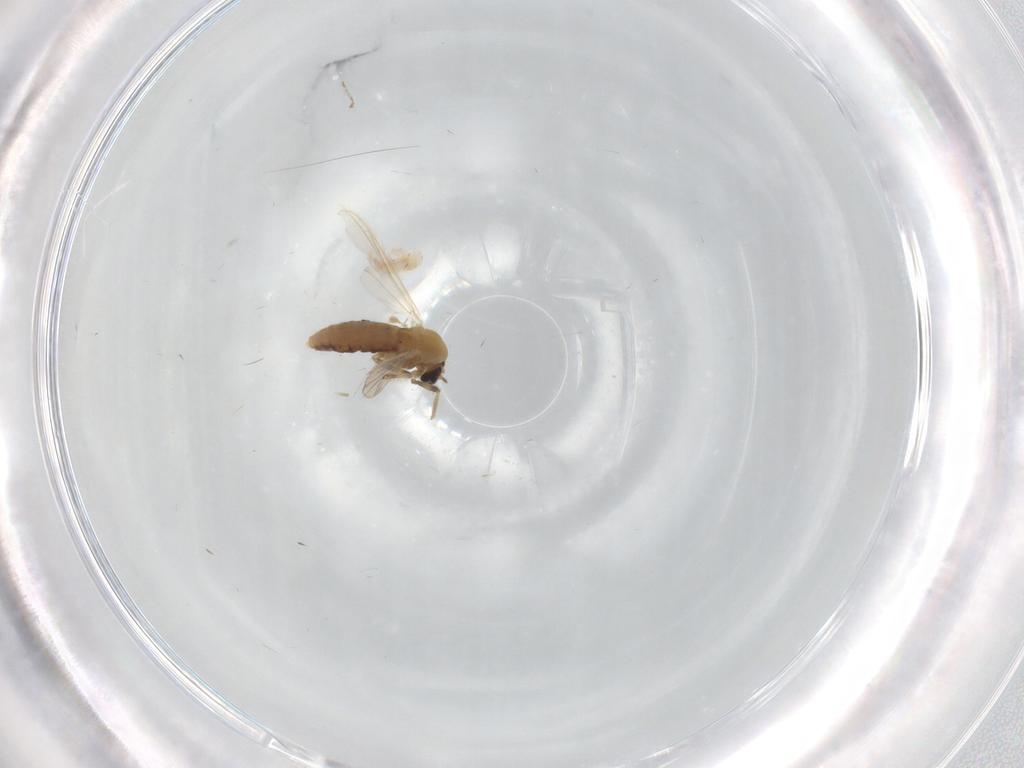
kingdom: Animalia
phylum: Arthropoda
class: Insecta
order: Diptera
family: Chironomidae
